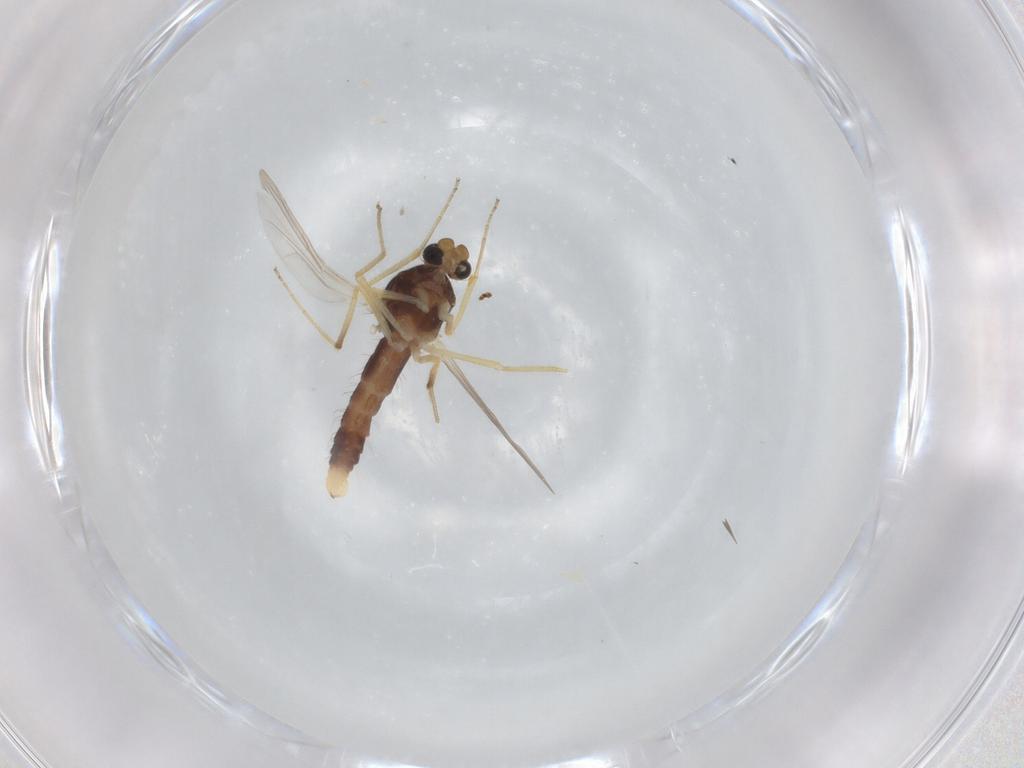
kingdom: Animalia
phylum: Arthropoda
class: Insecta
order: Diptera
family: Ceratopogonidae
